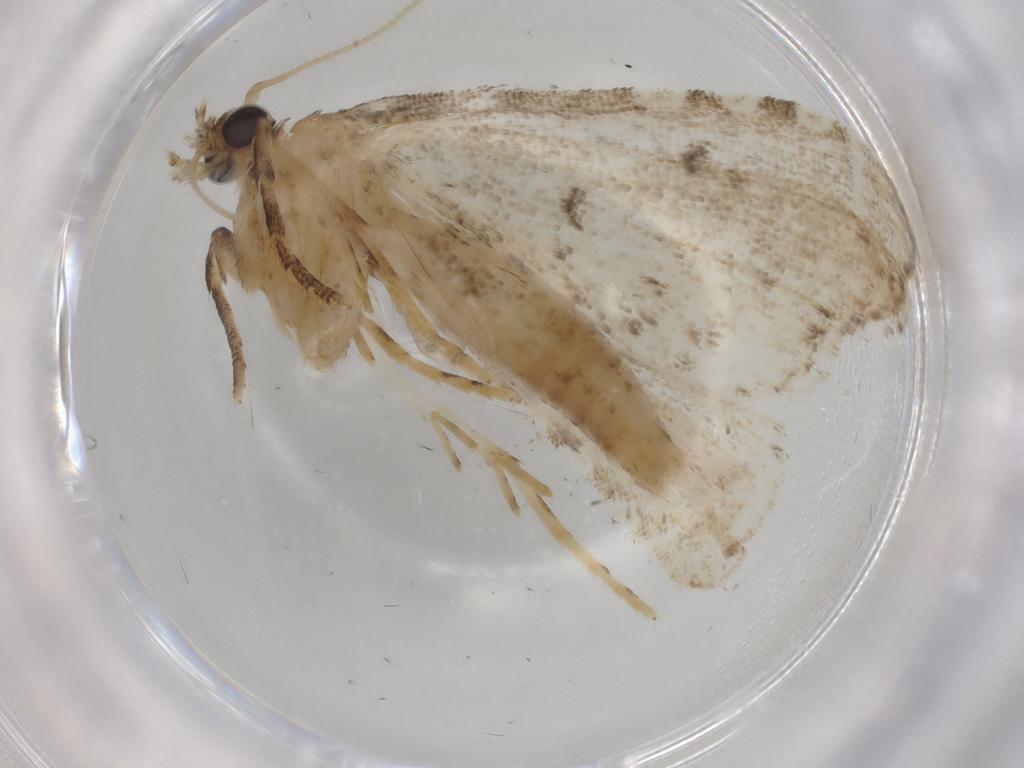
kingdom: Animalia
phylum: Arthropoda
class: Insecta
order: Lepidoptera
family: Crambidae
